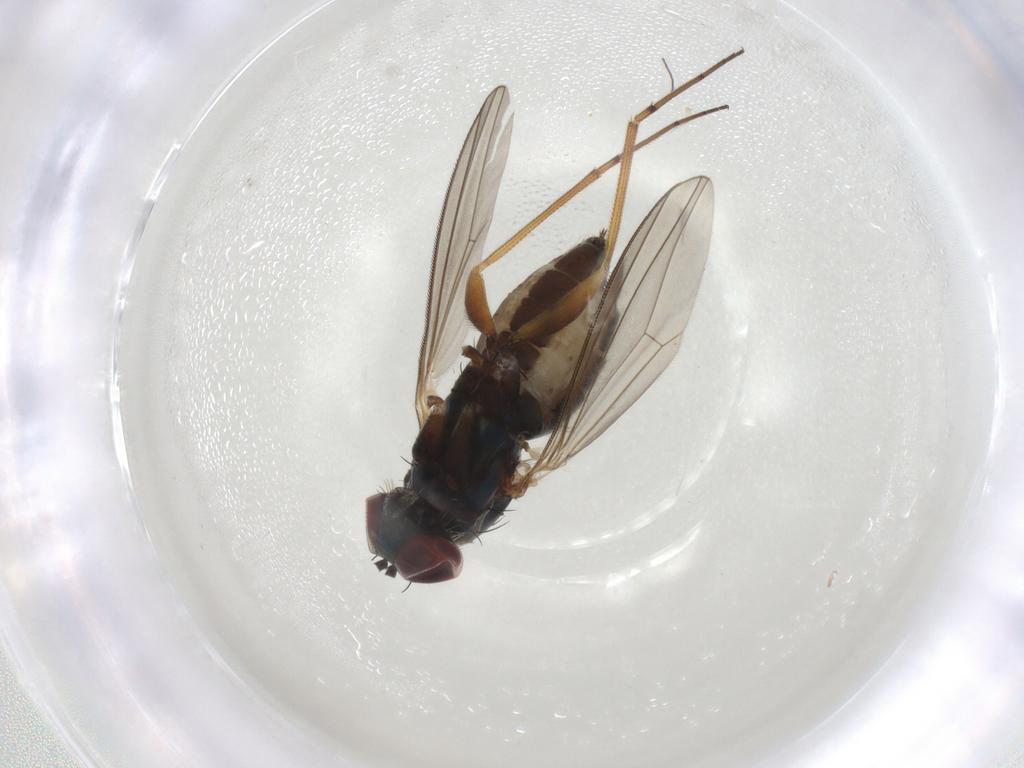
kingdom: Animalia
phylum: Arthropoda
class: Insecta
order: Diptera
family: Dolichopodidae
